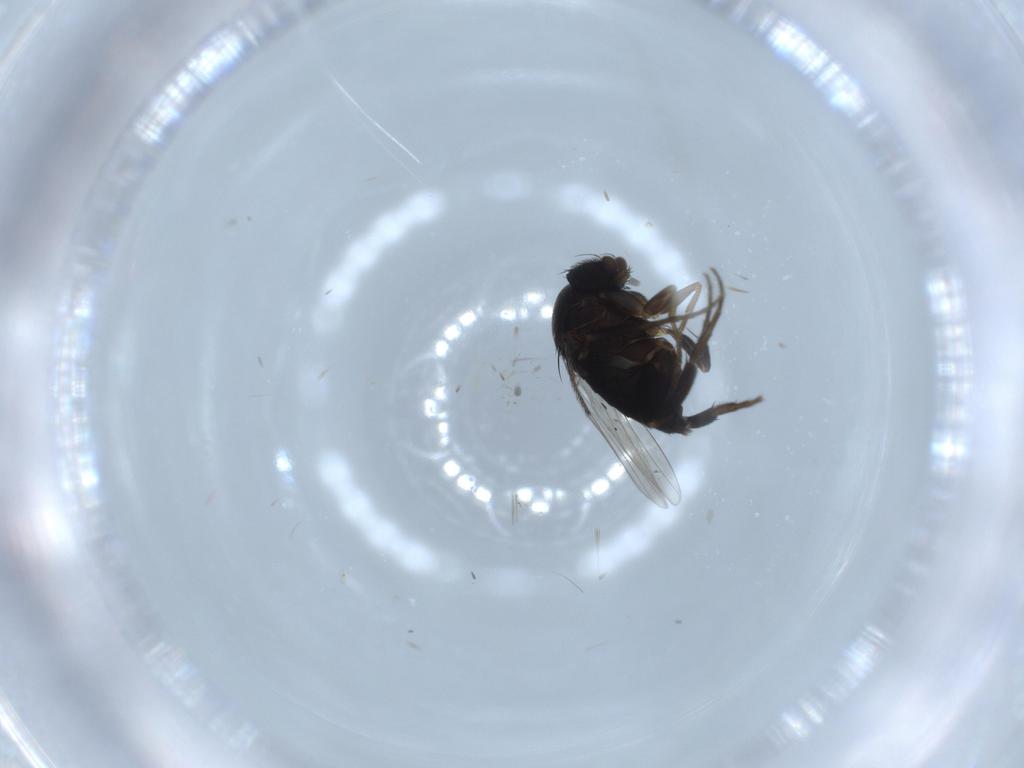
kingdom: Animalia
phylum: Arthropoda
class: Insecta
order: Diptera
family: Phoridae
